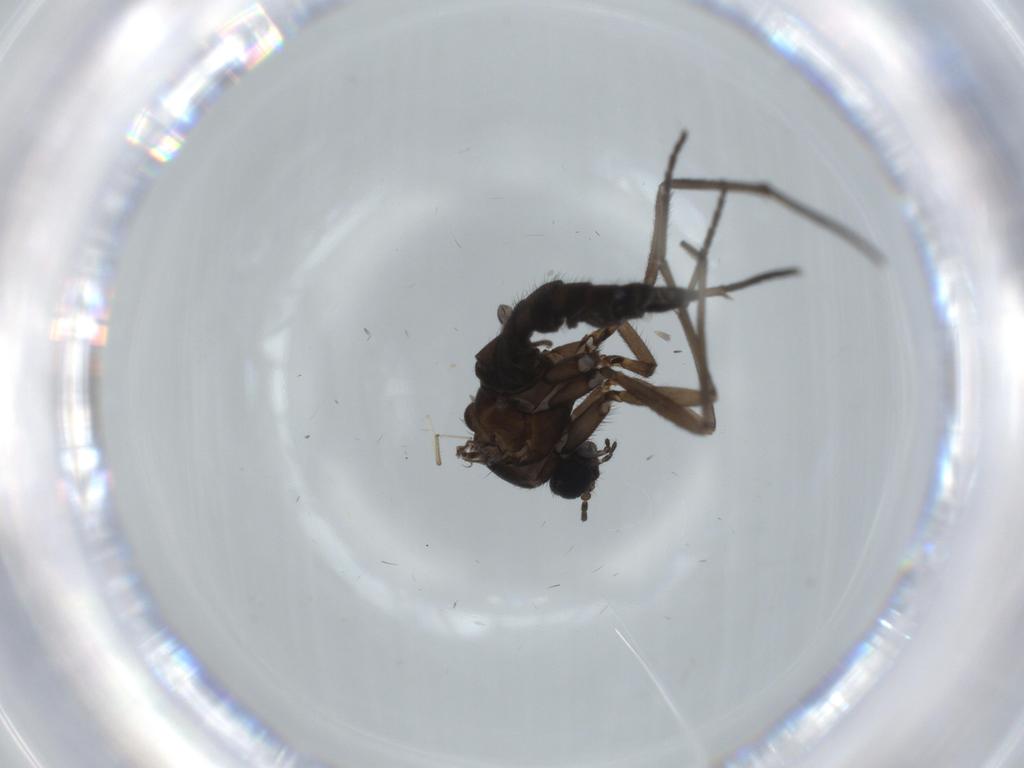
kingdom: Animalia
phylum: Arthropoda
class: Insecta
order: Diptera
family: Sciaridae
